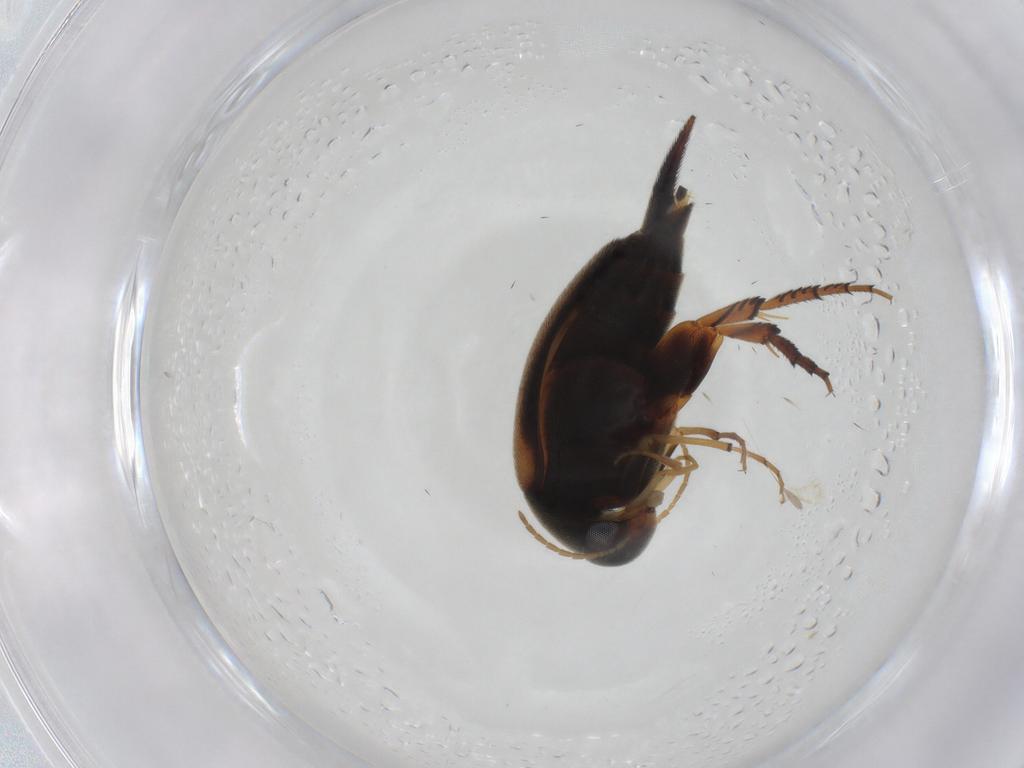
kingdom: Animalia
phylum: Arthropoda
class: Insecta
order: Coleoptera
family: Mordellidae
